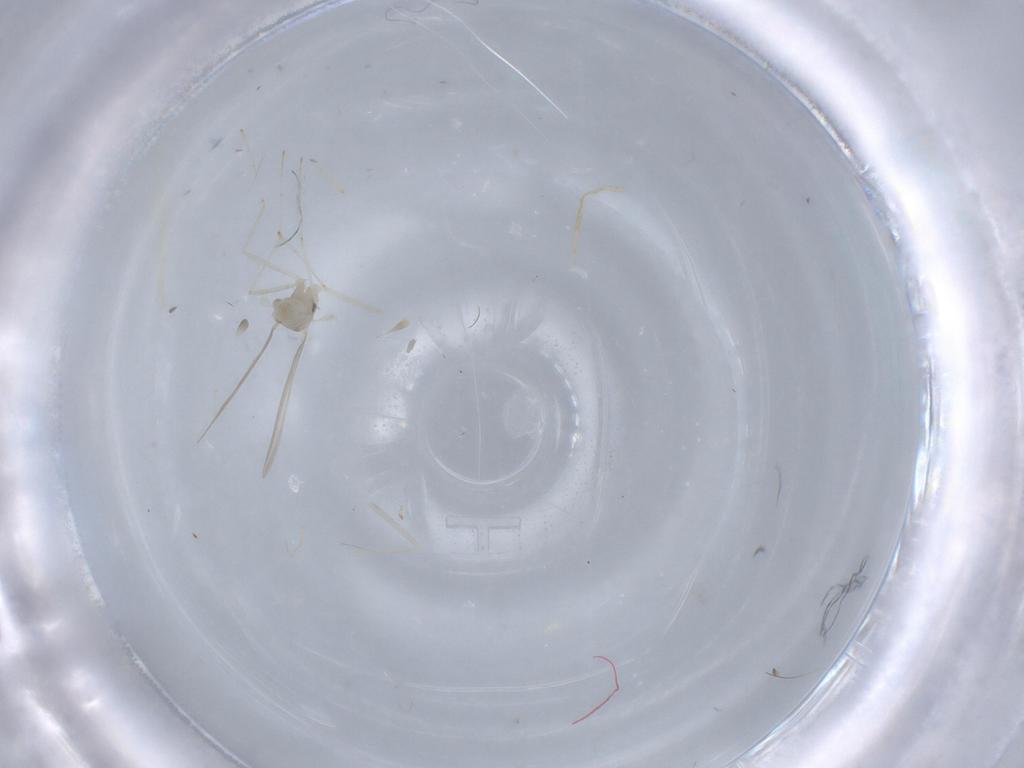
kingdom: Animalia
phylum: Arthropoda
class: Insecta
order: Diptera
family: Cecidomyiidae
